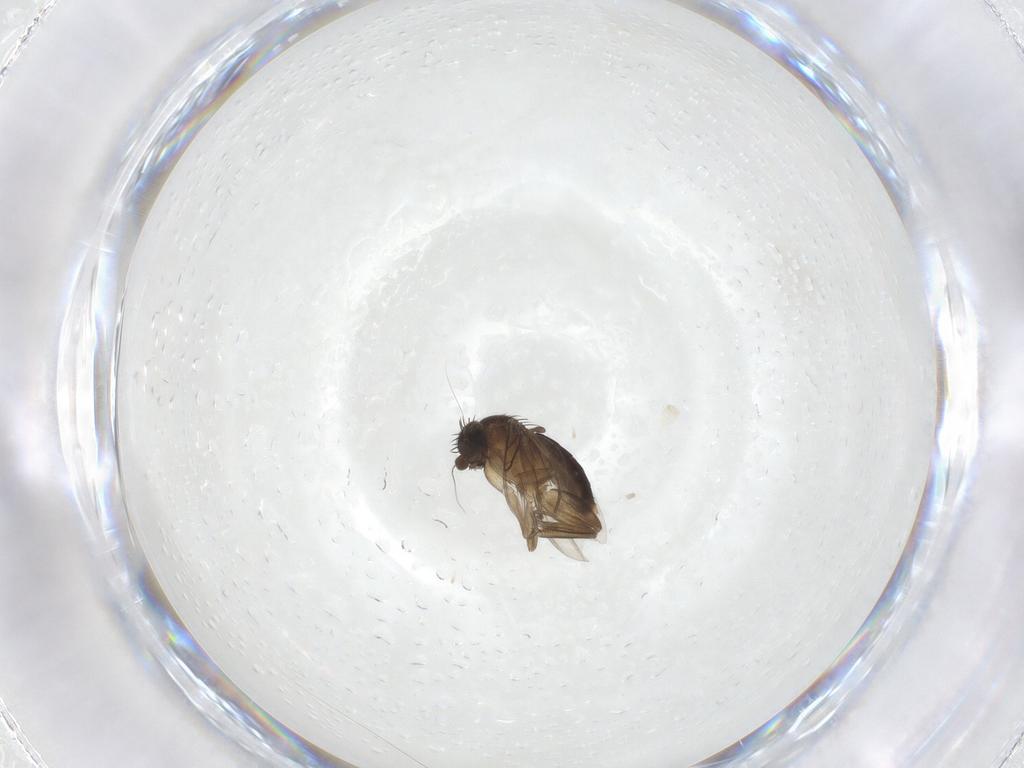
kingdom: Animalia
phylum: Arthropoda
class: Insecta
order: Diptera
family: Phoridae
